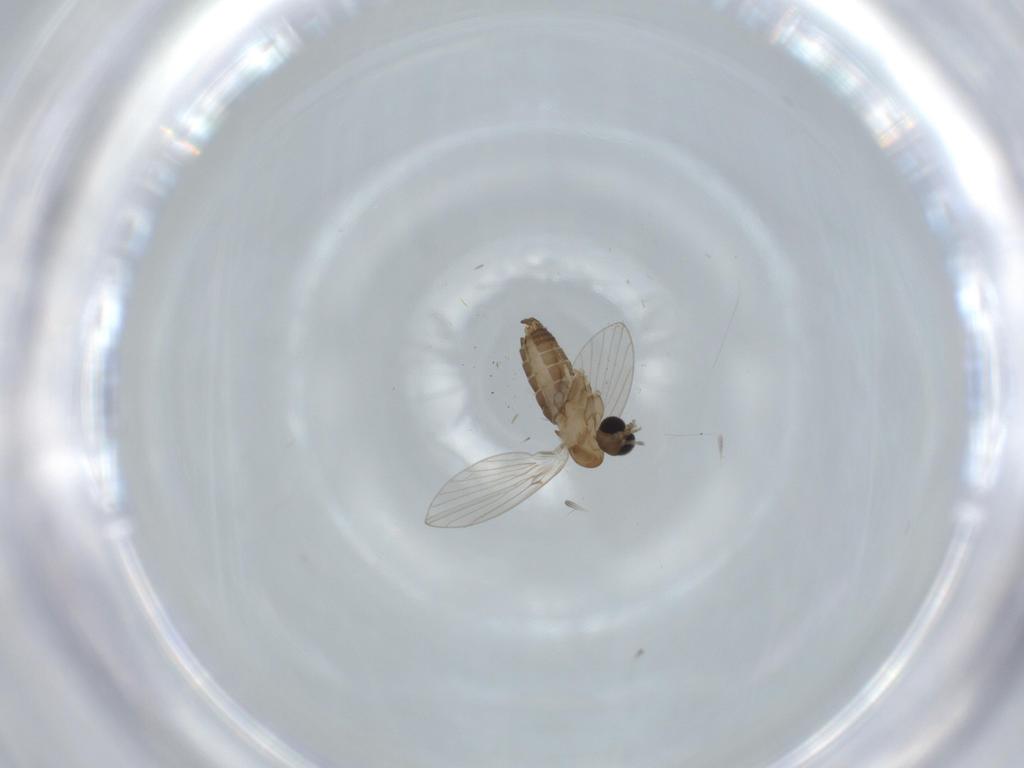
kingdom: Animalia
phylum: Arthropoda
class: Insecta
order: Diptera
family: Psychodidae
